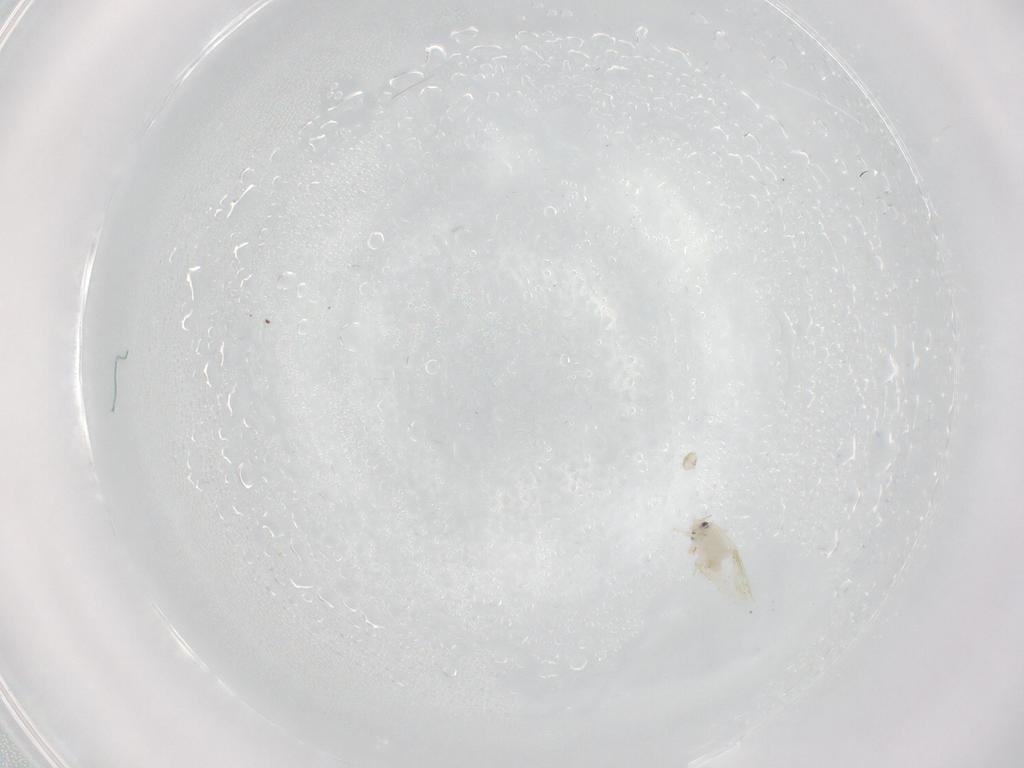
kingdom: Animalia
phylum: Arthropoda
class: Insecta
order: Hemiptera
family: Aleyrodidae
